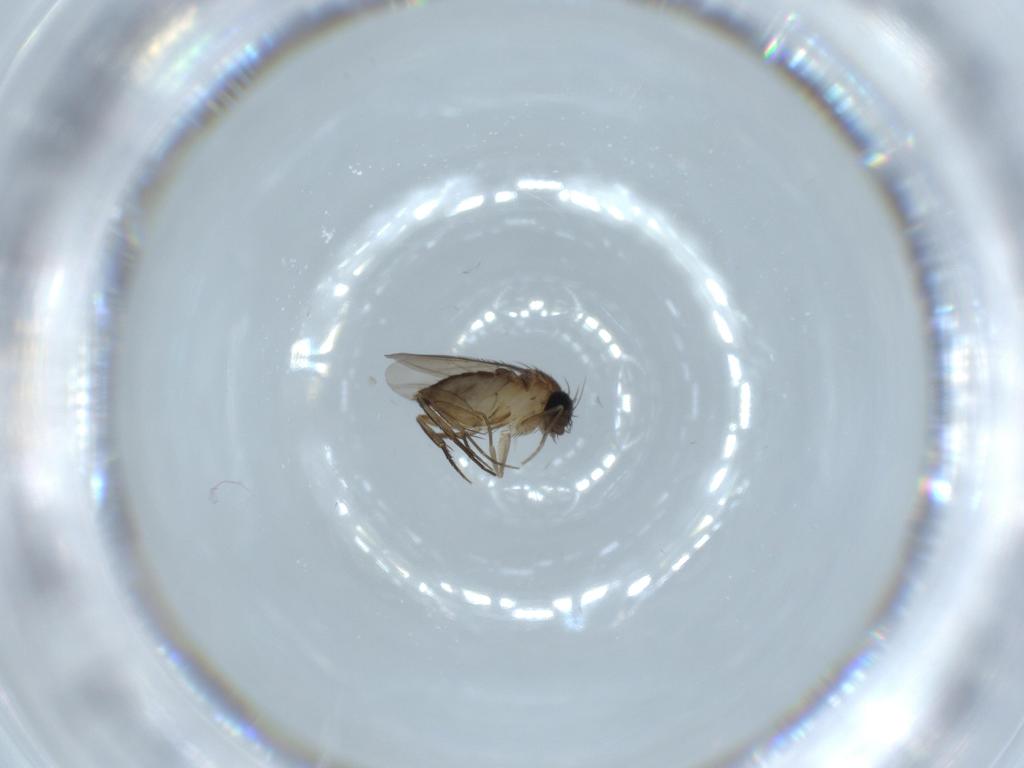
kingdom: Animalia
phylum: Arthropoda
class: Insecta
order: Diptera
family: Phoridae
